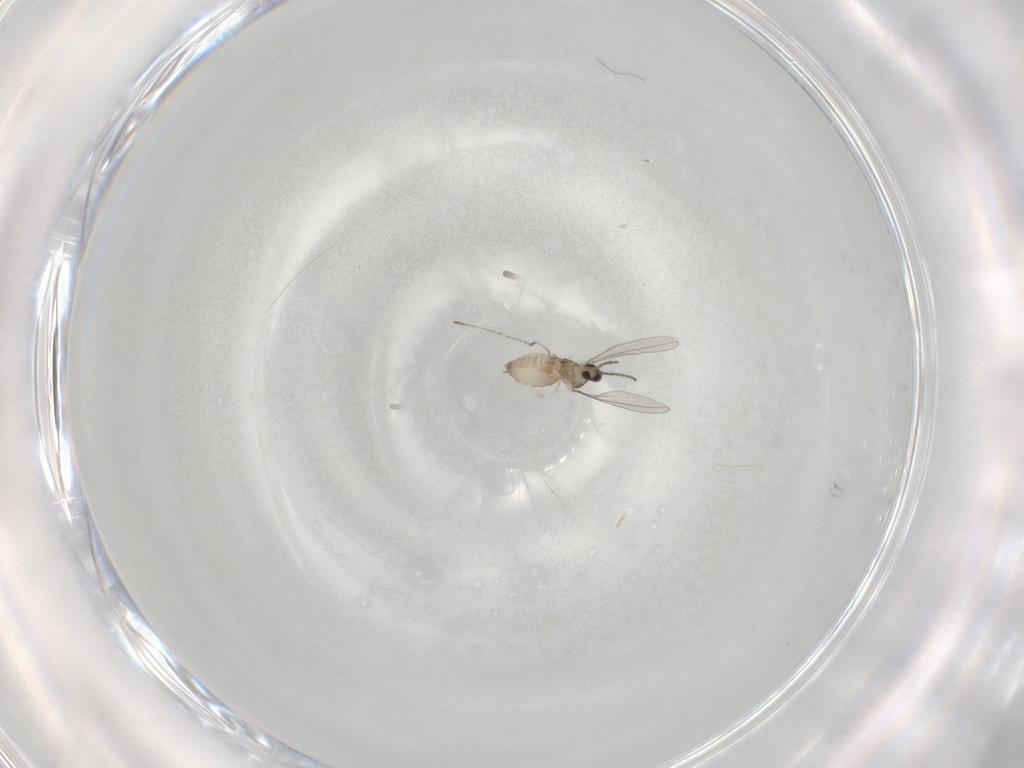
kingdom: Animalia
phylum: Arthropoda
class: Insecta
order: Diptera
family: Cecidomyiidae
